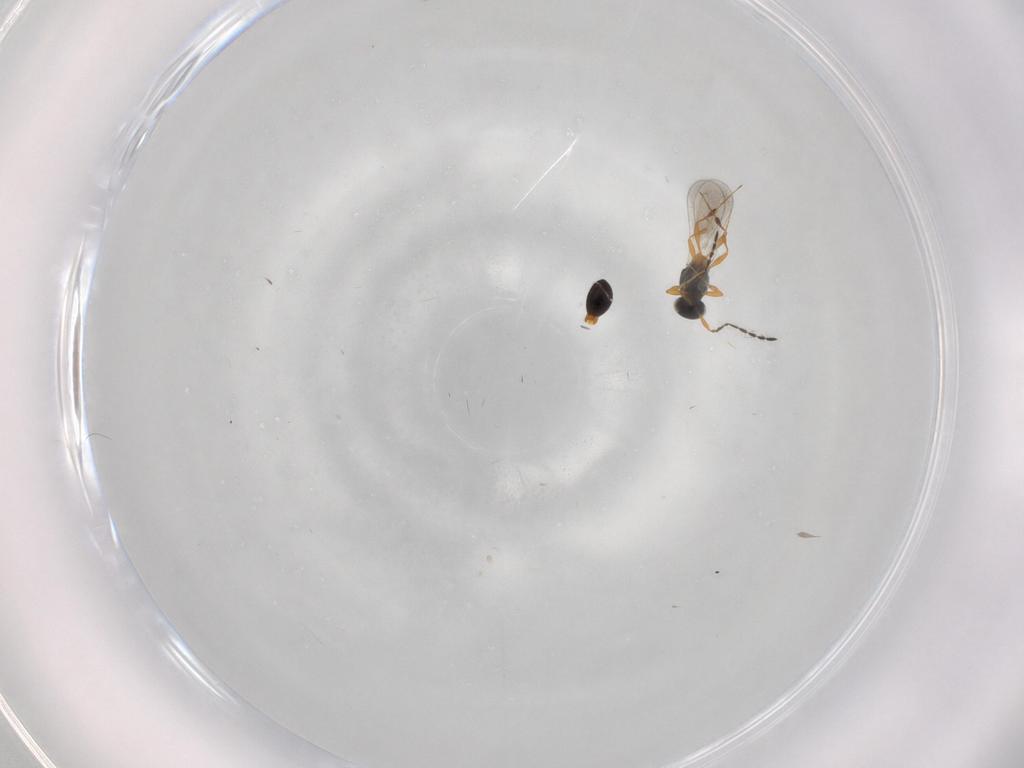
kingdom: Animalia
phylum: Arthropoda
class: Insecta
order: Hymenoptera
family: Platygastridae
